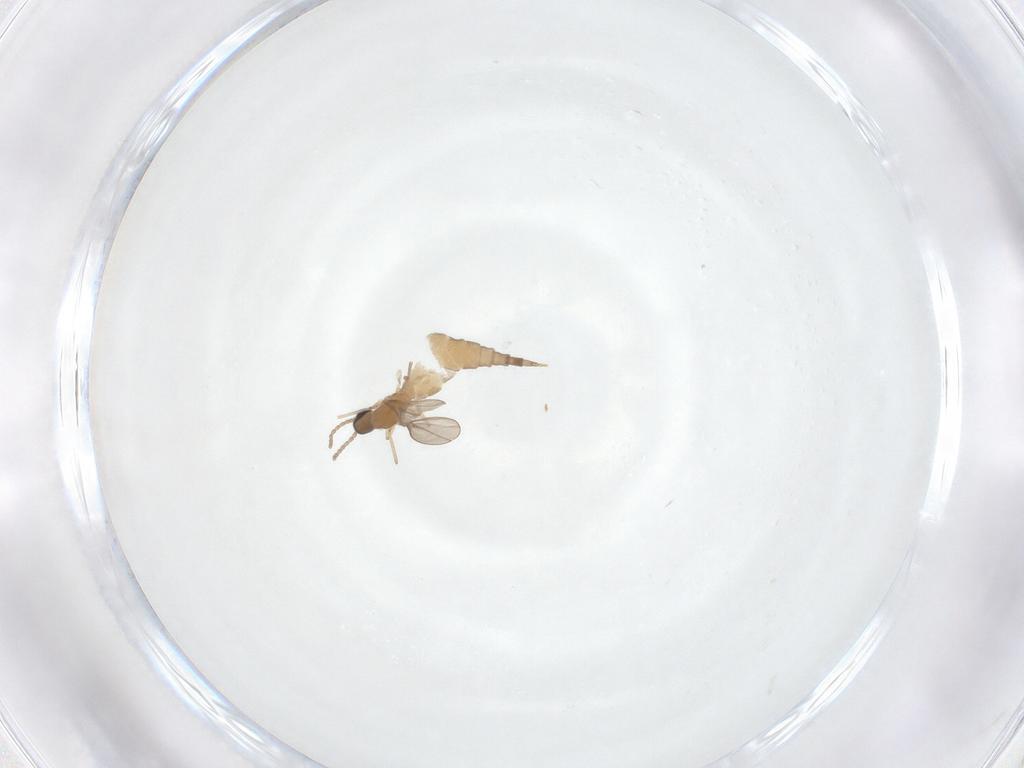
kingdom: Animalia
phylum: Arthropoda
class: Insecta
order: Diptera
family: Cecidomyiidae
